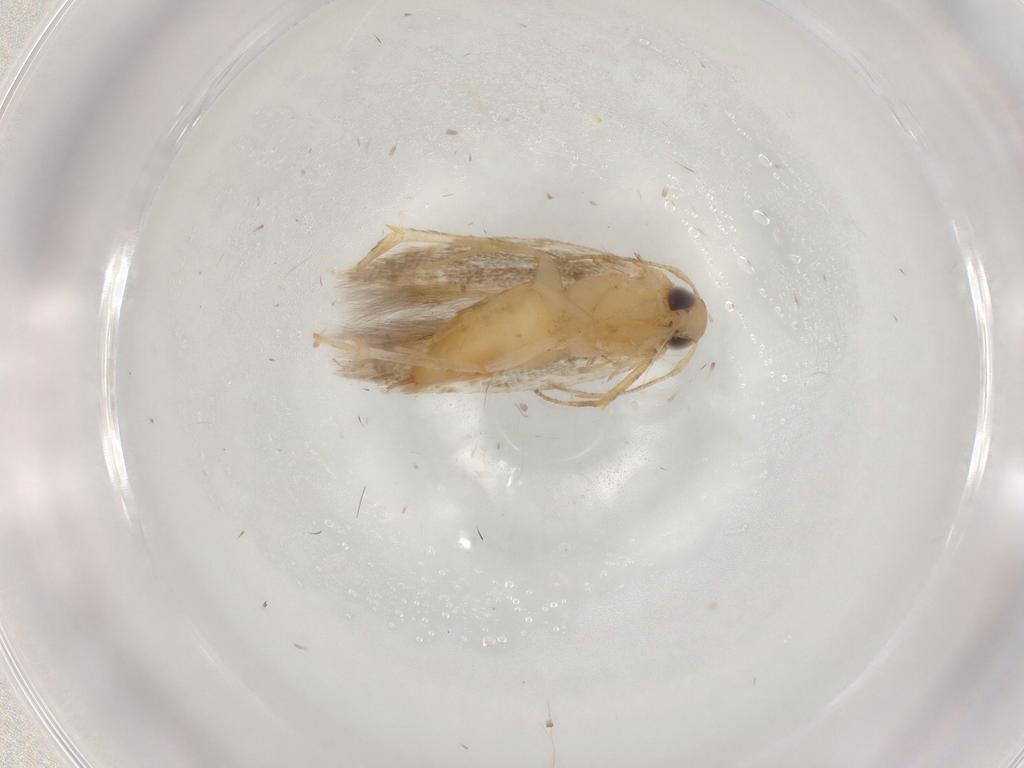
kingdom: Animalia
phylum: Arthropoda
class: Insecta
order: Lepidoptera
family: Cosmopterigidae
